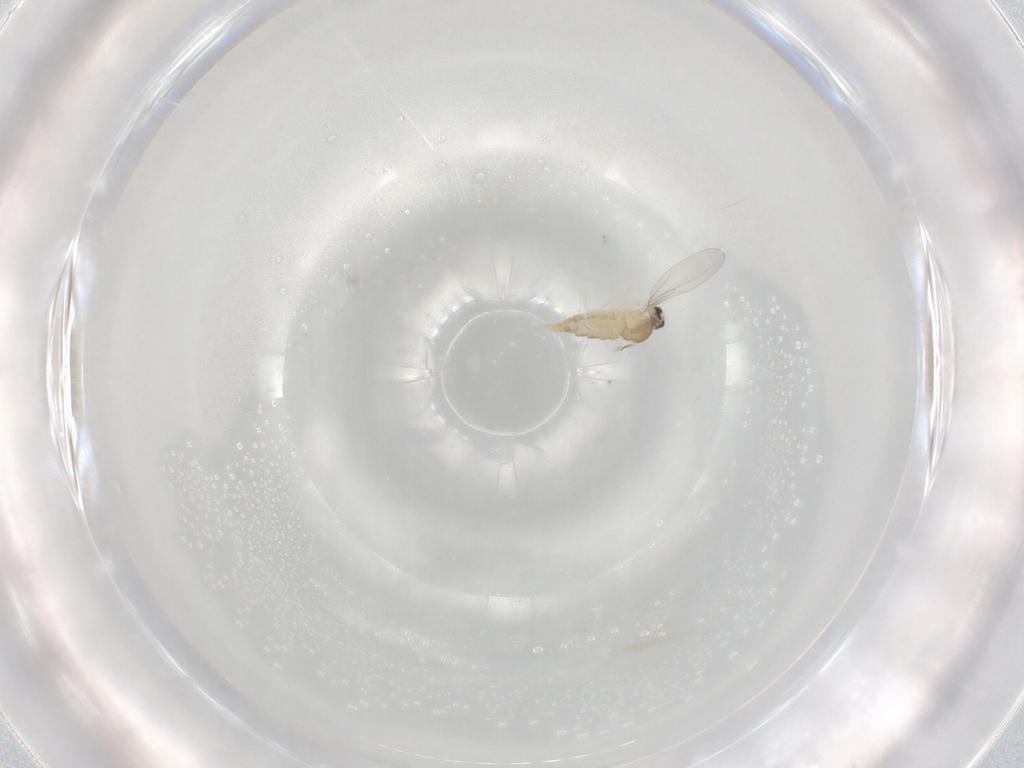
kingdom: Animalia
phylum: Arthropoda
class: Insecta
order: Diptera
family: Cecidomyiidae
